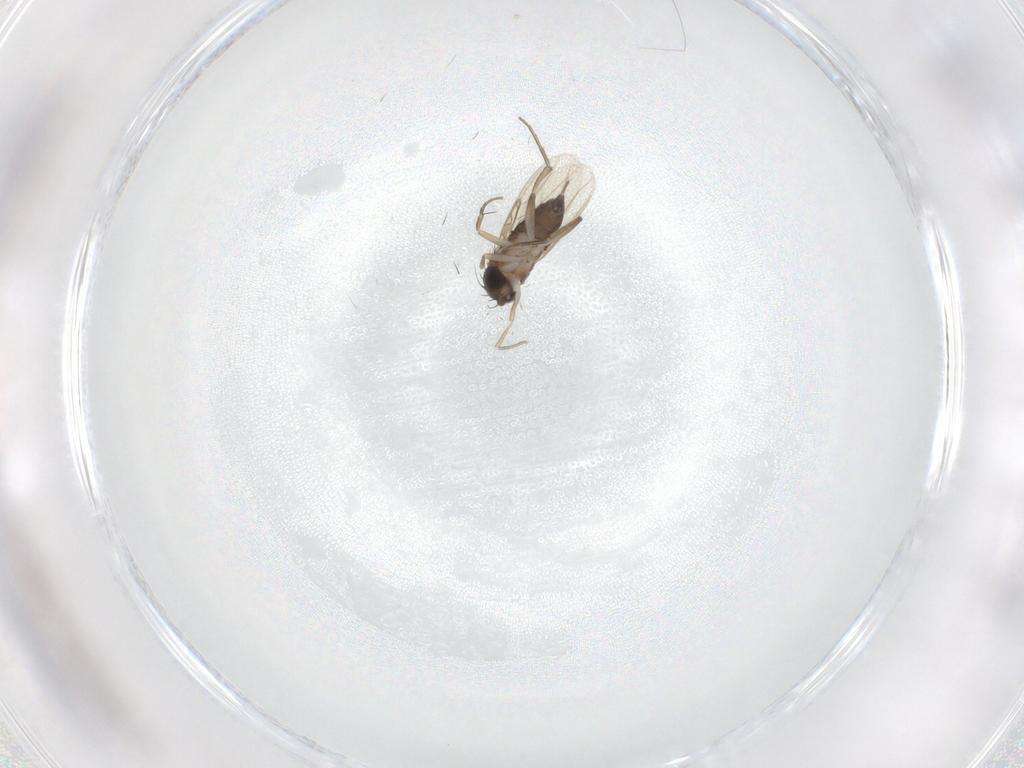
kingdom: Animalia
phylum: Arthropoda
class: Insecta
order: Diptera
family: Phoridae
